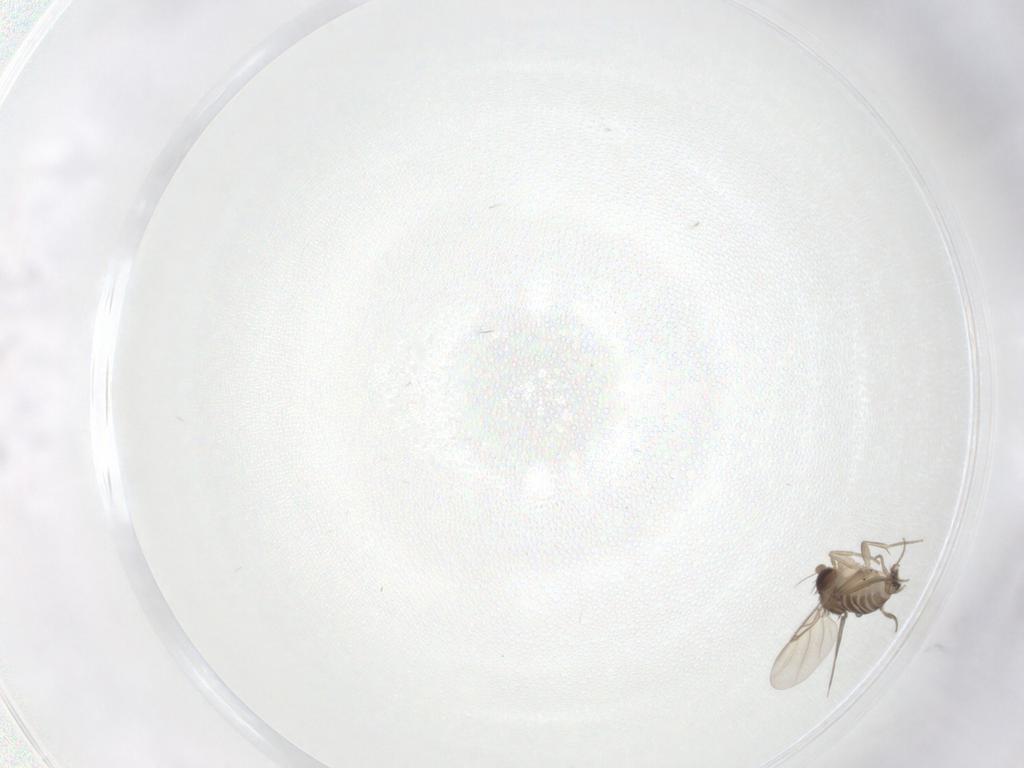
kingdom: Animalia
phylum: Arthropoda
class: Insecta
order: Diptera
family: Phoridae
